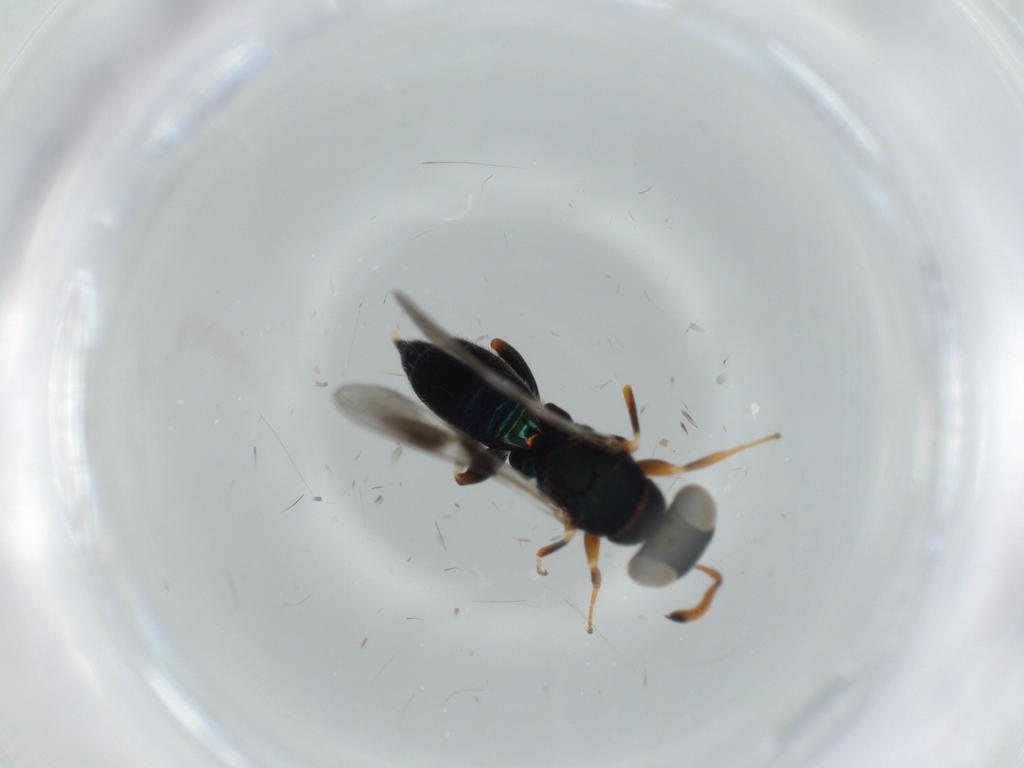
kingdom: Animalia
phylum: Arthropoda
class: Insecta
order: Hymenoptera
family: Cleonyminae
